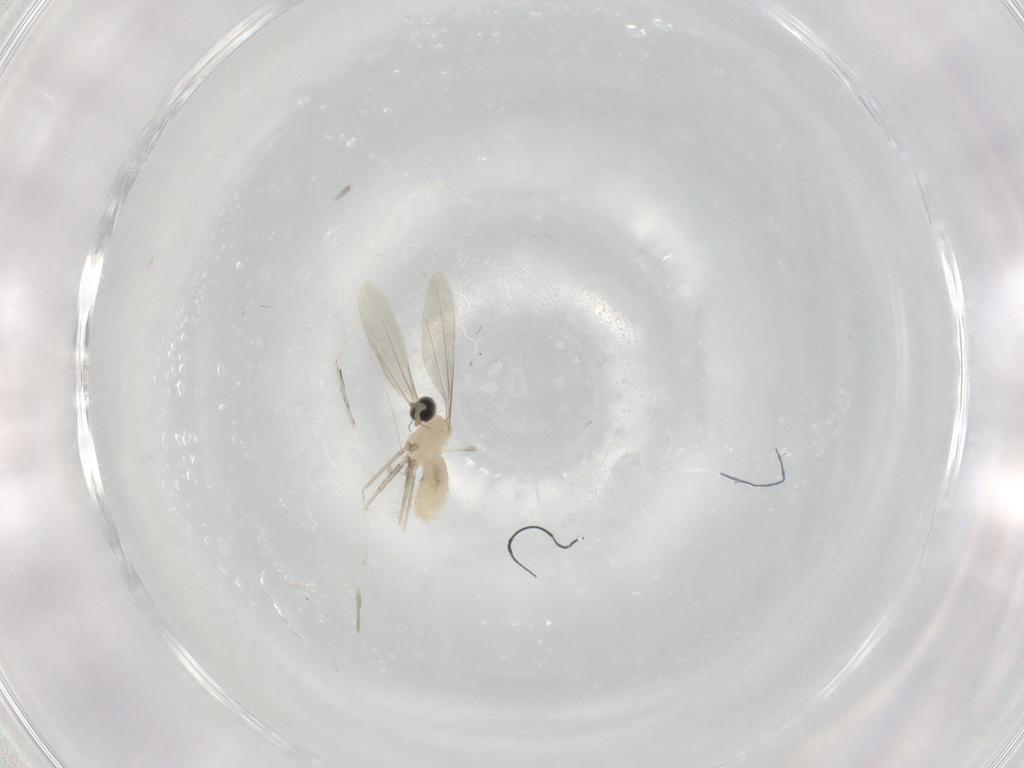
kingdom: Animalia
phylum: Arthropoda
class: Insecta
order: Diptera
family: Cecidomyiidae
